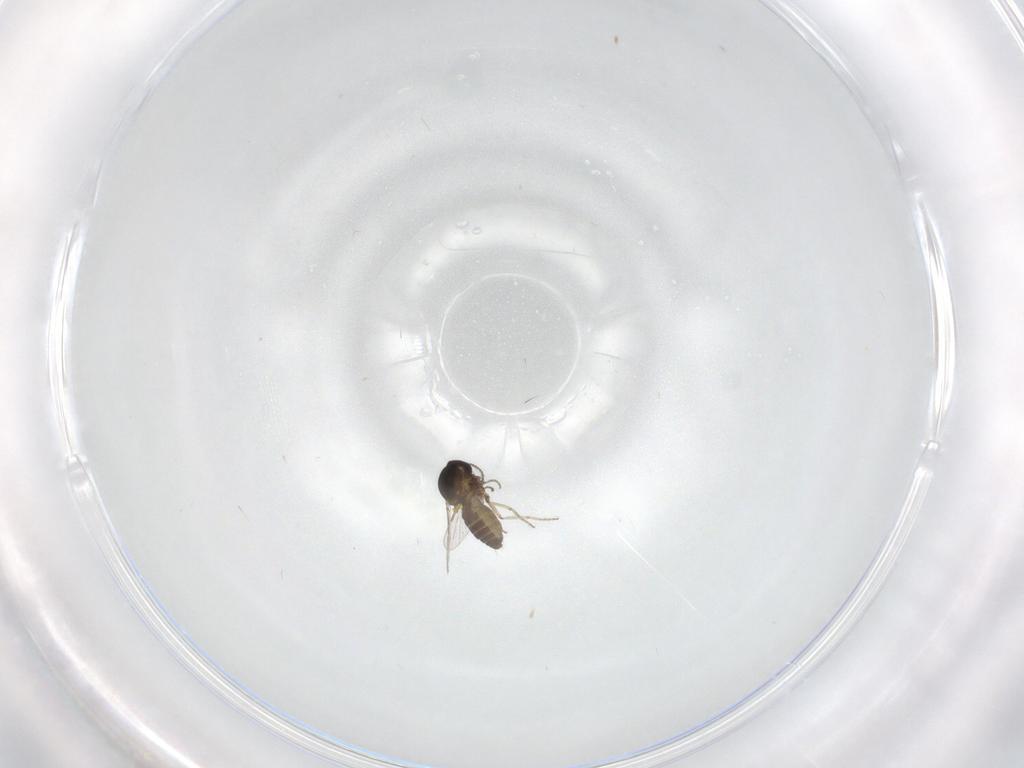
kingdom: Animalia
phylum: Arthropoda
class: Insecta
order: Diptera
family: Ceratopogonidae
